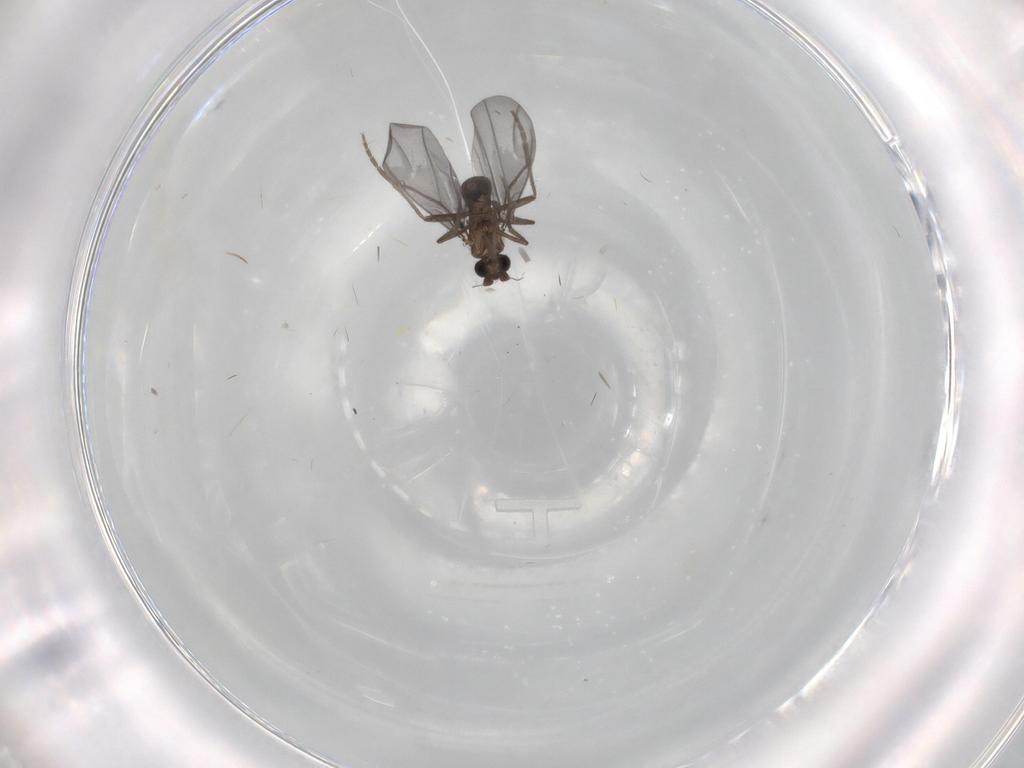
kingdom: Animalia
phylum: Arthropoda
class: Insecta
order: Diptera
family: Phoridae
